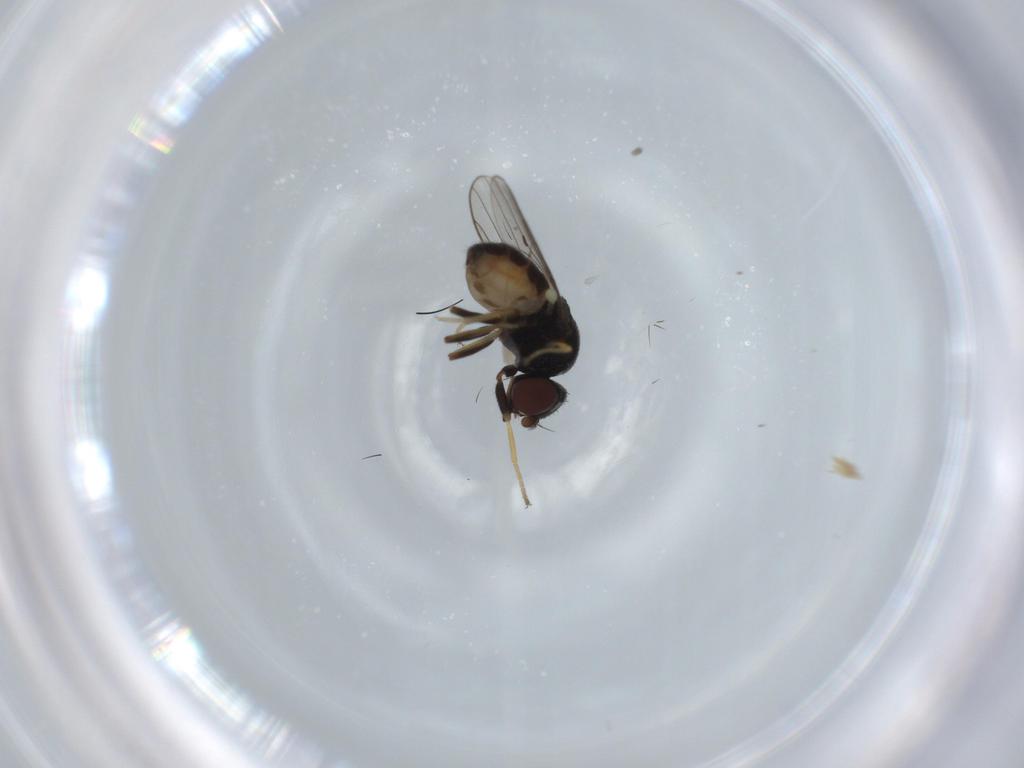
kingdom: Animalia
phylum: Arthropoda
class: Insecta
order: Diptera
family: Chloropidae
